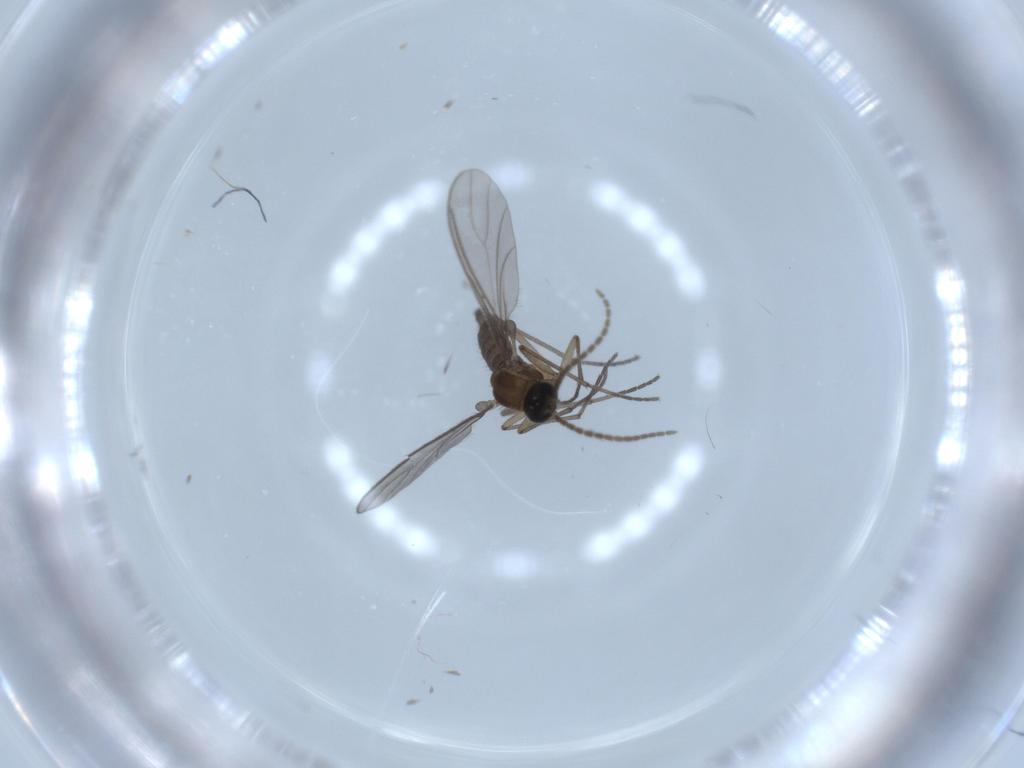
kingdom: Animalia
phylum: Arthropoda
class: Insecta
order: Diptera
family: Sciaridae
